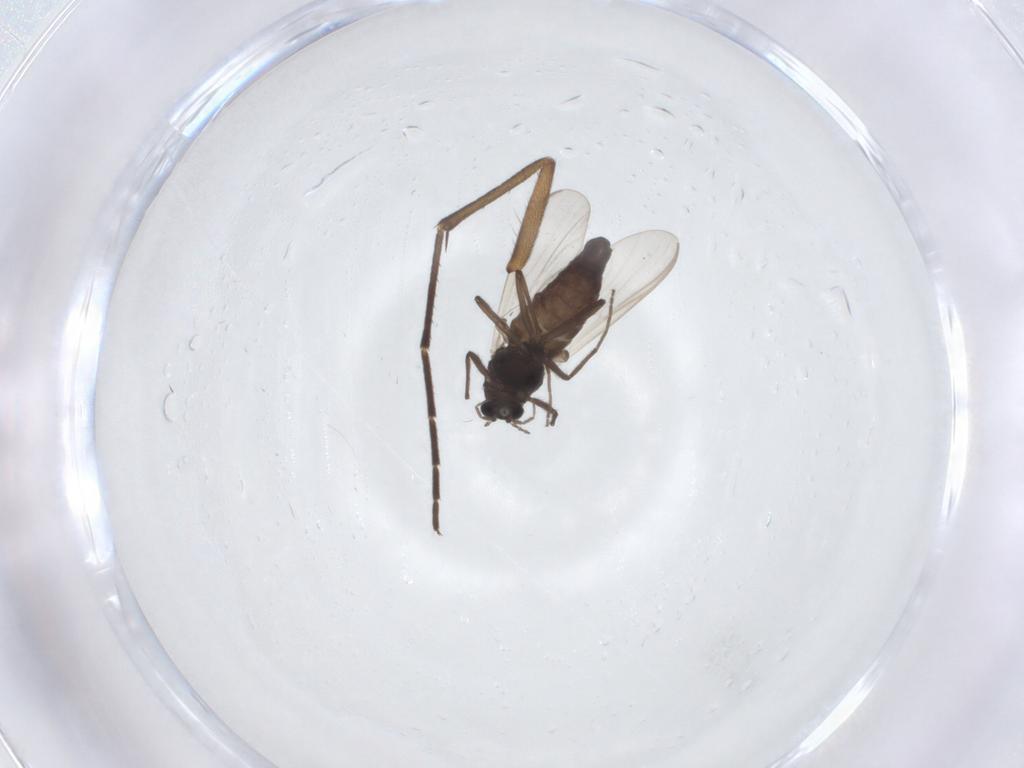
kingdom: Animalia
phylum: Arthropoda
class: Insecta
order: Diptera
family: Mycetophilidae
